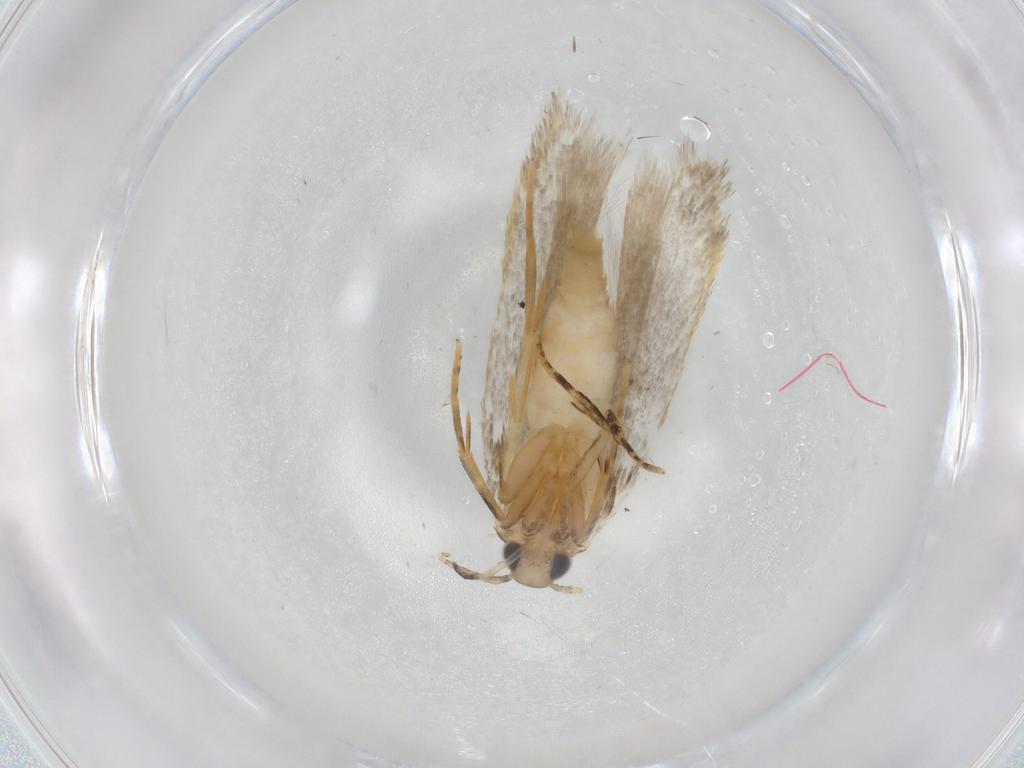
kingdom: Animalia
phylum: Arthropoda
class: Insecta
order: Lepidoptera
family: Autostichidae
